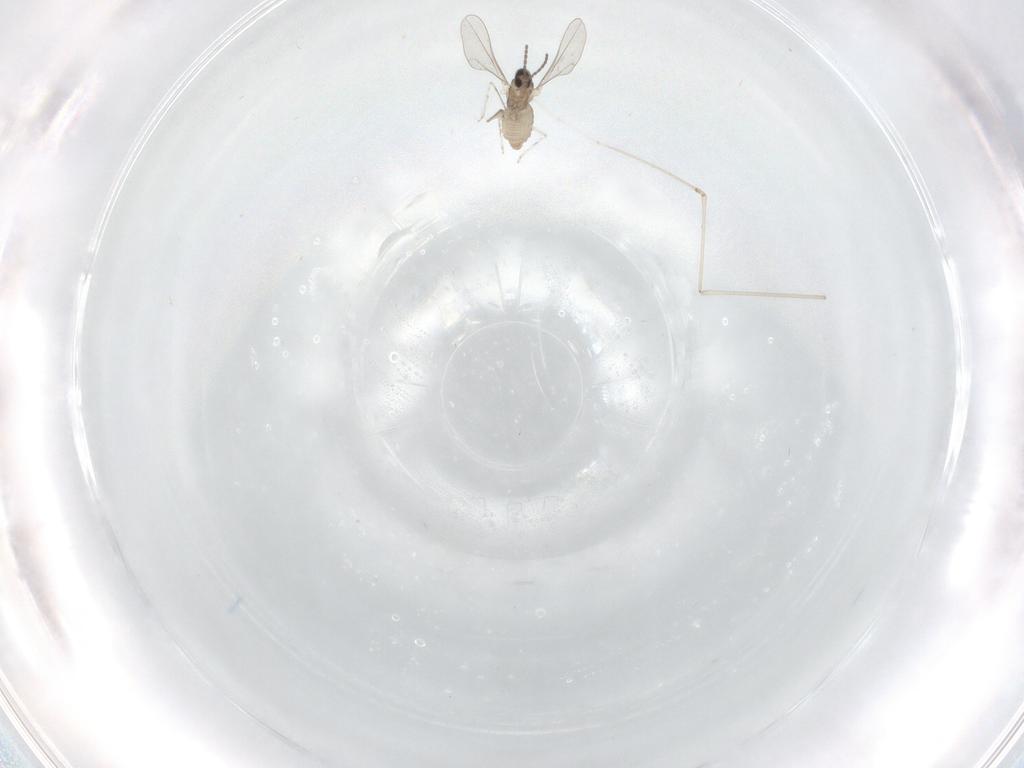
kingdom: Animalia
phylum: Arthropoda
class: Insecta
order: Diptera
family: Cecidomyiidae
